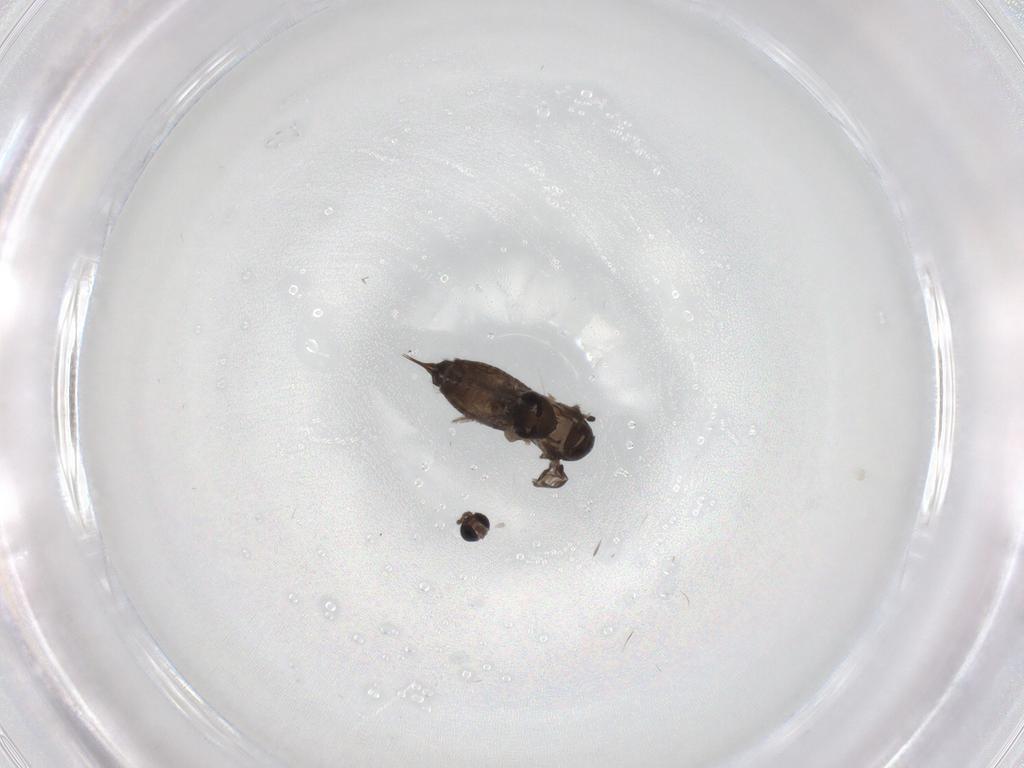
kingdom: Animalia
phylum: Arthropoda
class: Insecta
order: Diptera
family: Psychodidae
